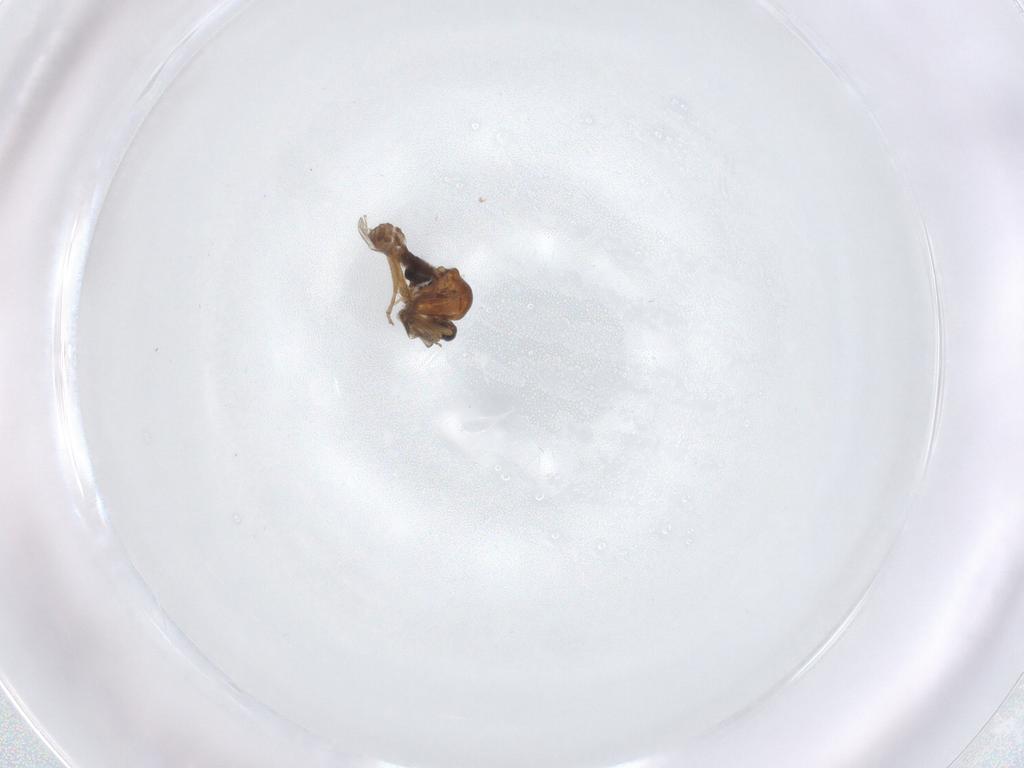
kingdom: Animalia
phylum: Arthropoda
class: Insecta
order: Diptera
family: Ceratopogonidae
